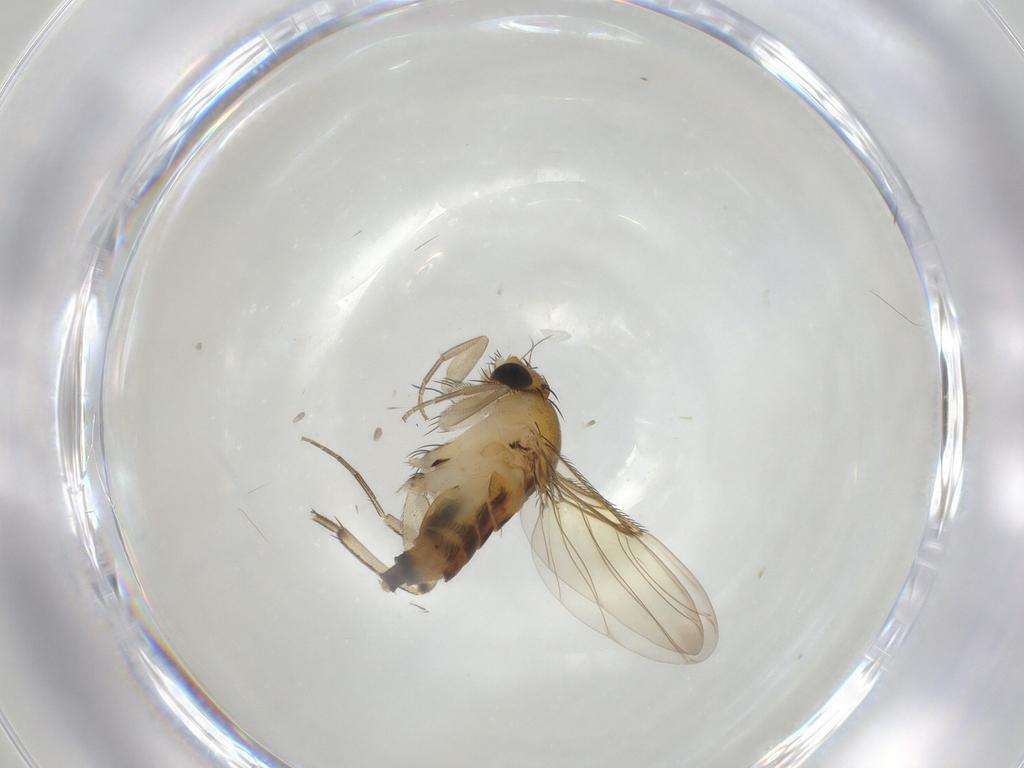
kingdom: Animalia
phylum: Arthropoda
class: Insecta
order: Diptera
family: Phoridae
